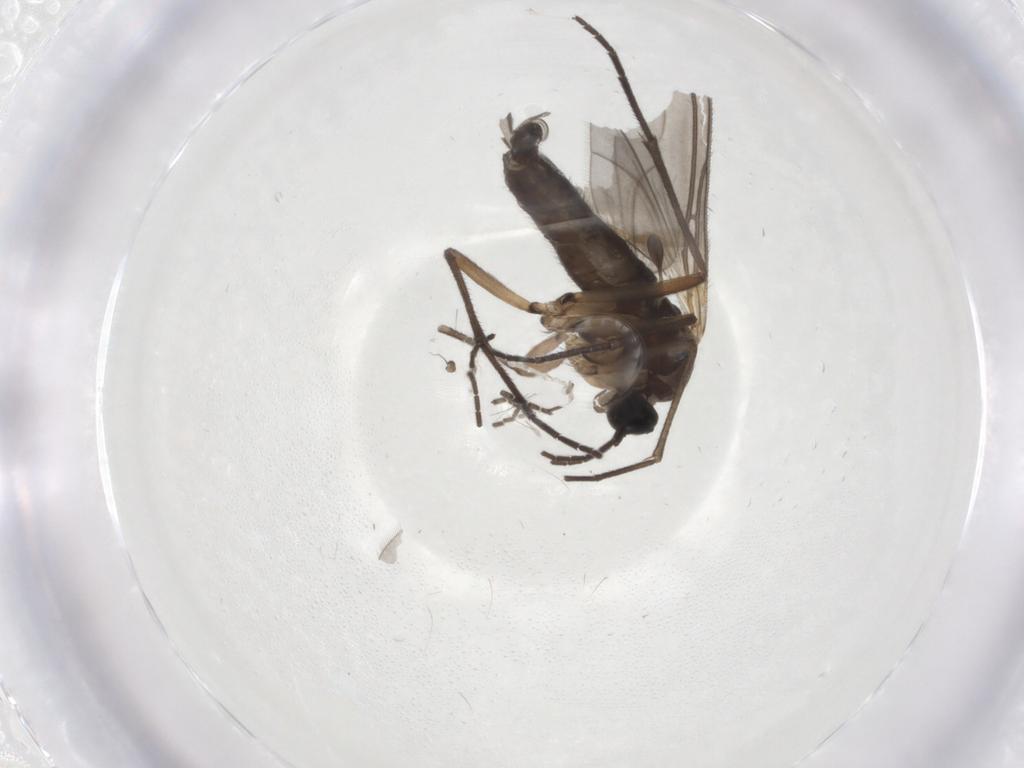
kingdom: Animalia
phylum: Arthropoda
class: Insecta
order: Diptera
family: Sciaridae
